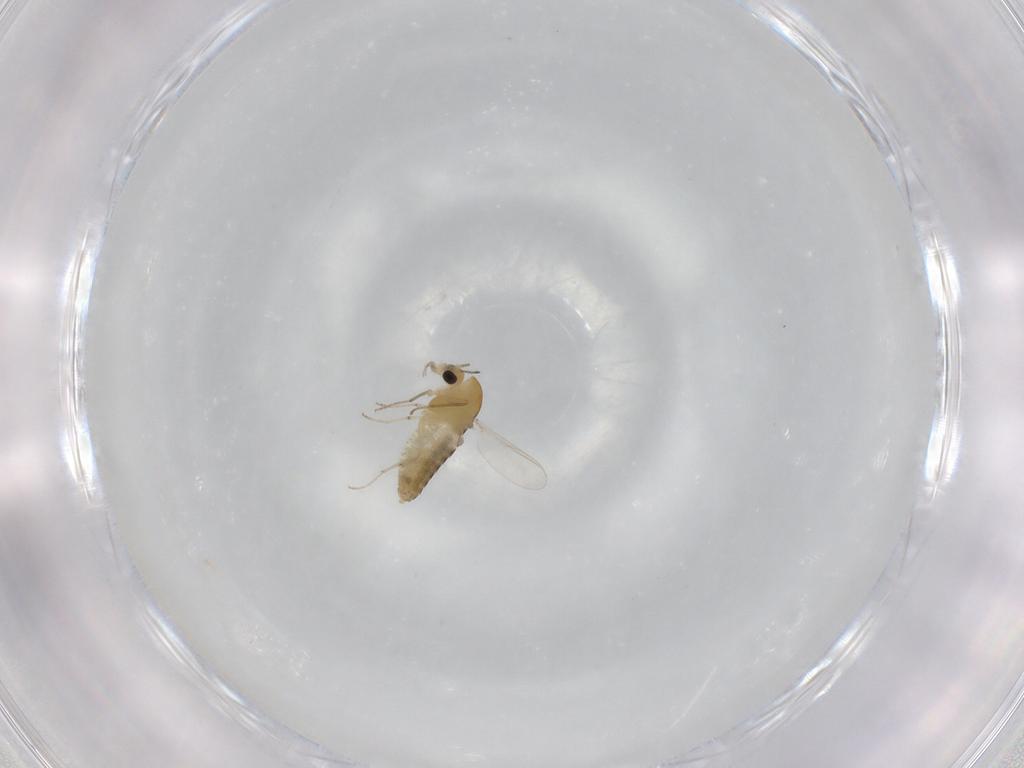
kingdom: Animalia
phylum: Arthropoda
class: Insecta
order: Diptera
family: Chironomidae
